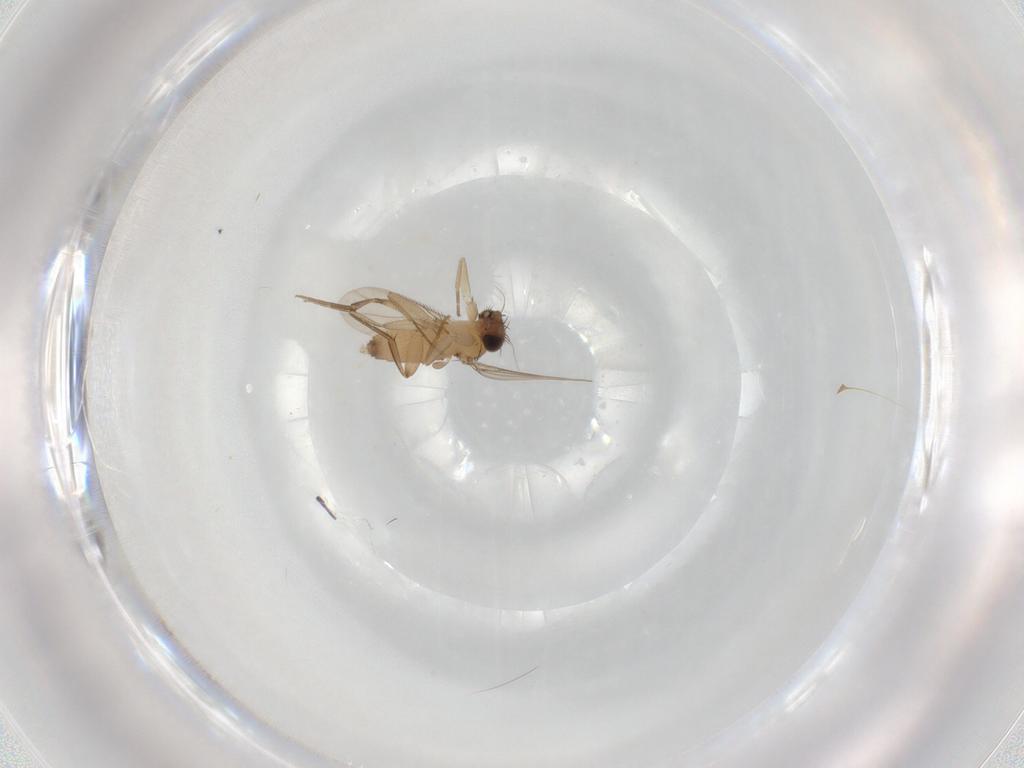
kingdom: Animalia
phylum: Arthropoda
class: Insecta
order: Diptera
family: Phoridae
